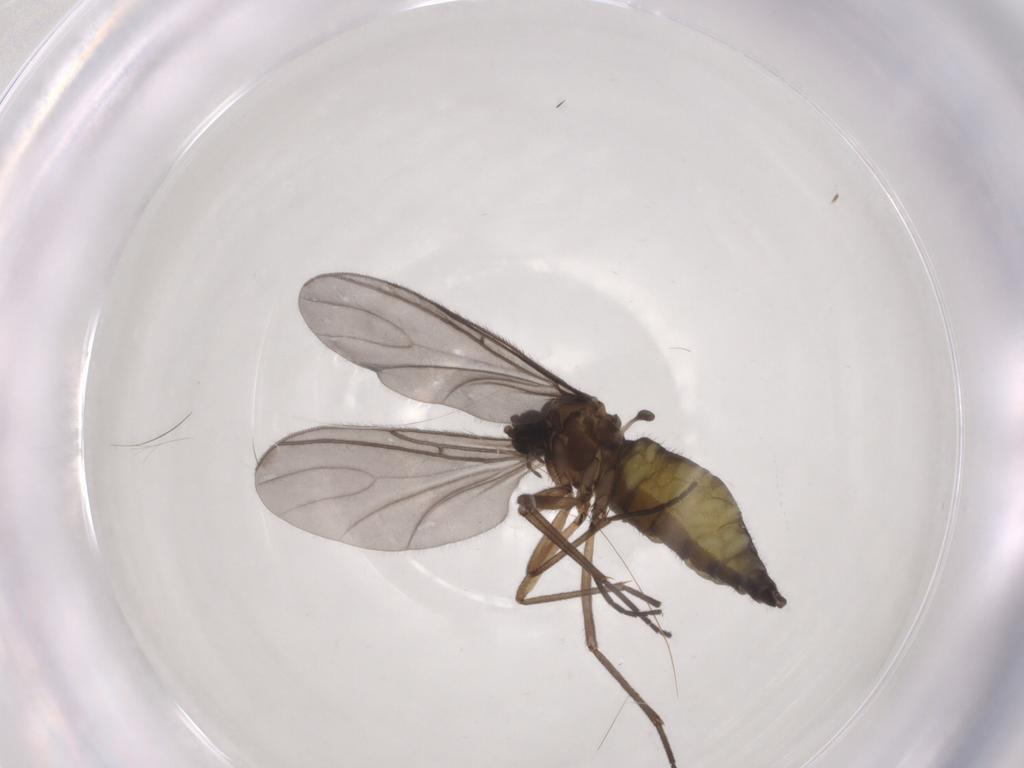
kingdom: Animalia
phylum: Arthropoda
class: Insecta
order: Diptera
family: Sciaridae
